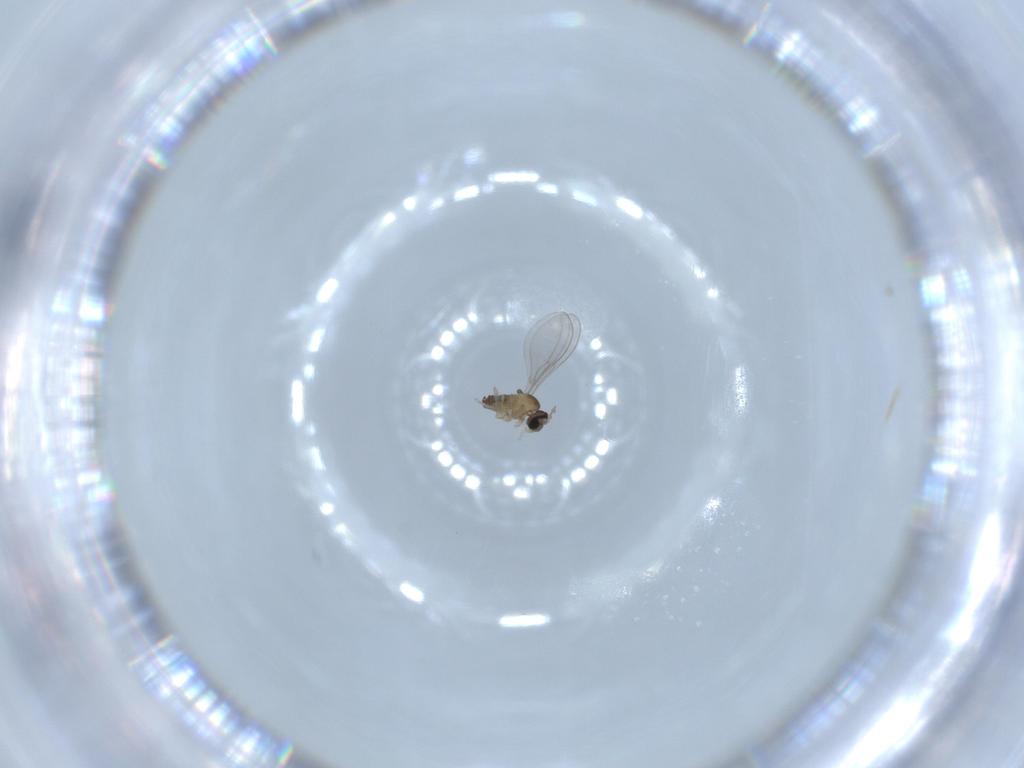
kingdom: Animalia
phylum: Arthropoda
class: Insecta
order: Diptera
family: Cecidomyiidae
